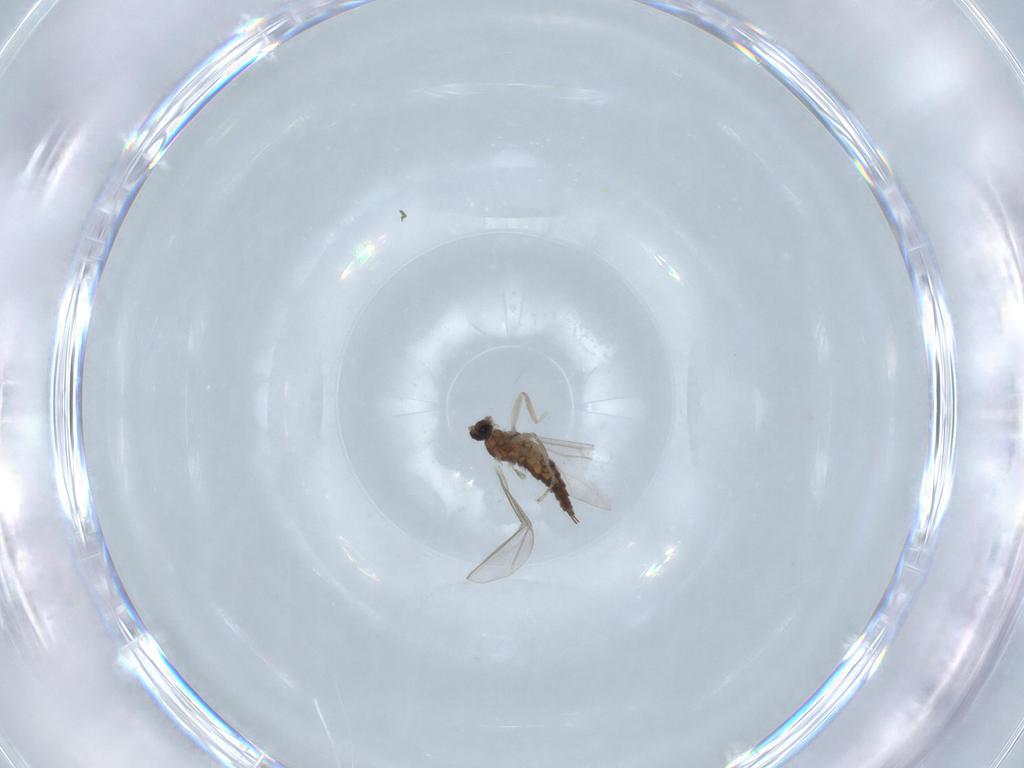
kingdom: Animalia
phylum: Arthropoda
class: Insecta
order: Diptera
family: Cecidomyiidae
